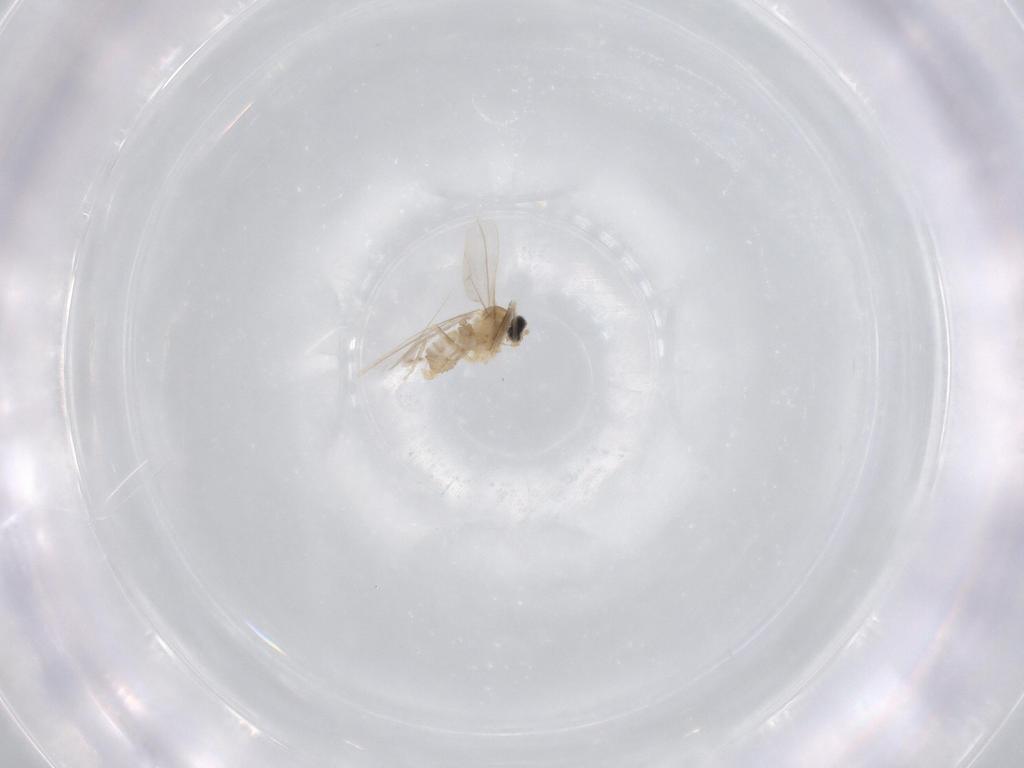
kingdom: Animalia
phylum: Arthropoda
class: Insecta
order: Diptera
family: Cecidomyiidae
